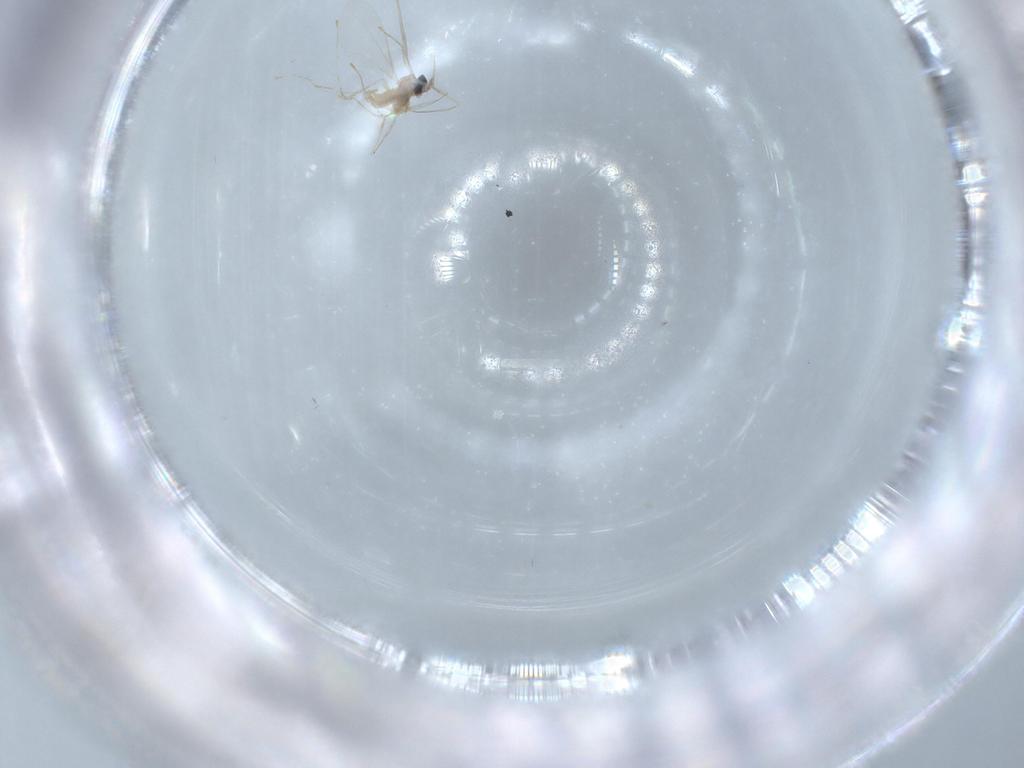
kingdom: Animalia
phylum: Arthropoda
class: Insecta
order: Diptera
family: Cecidomyiidae
